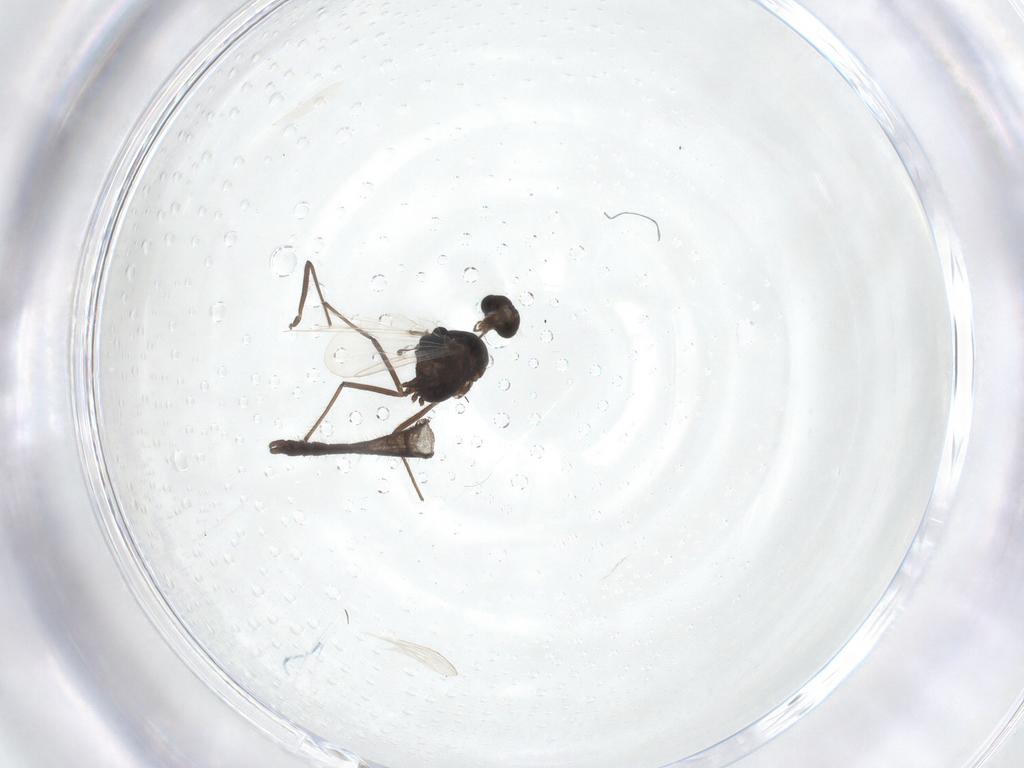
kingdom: Animalia
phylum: Arthropoda
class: Insecta
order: Diptera
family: Chironomidae
